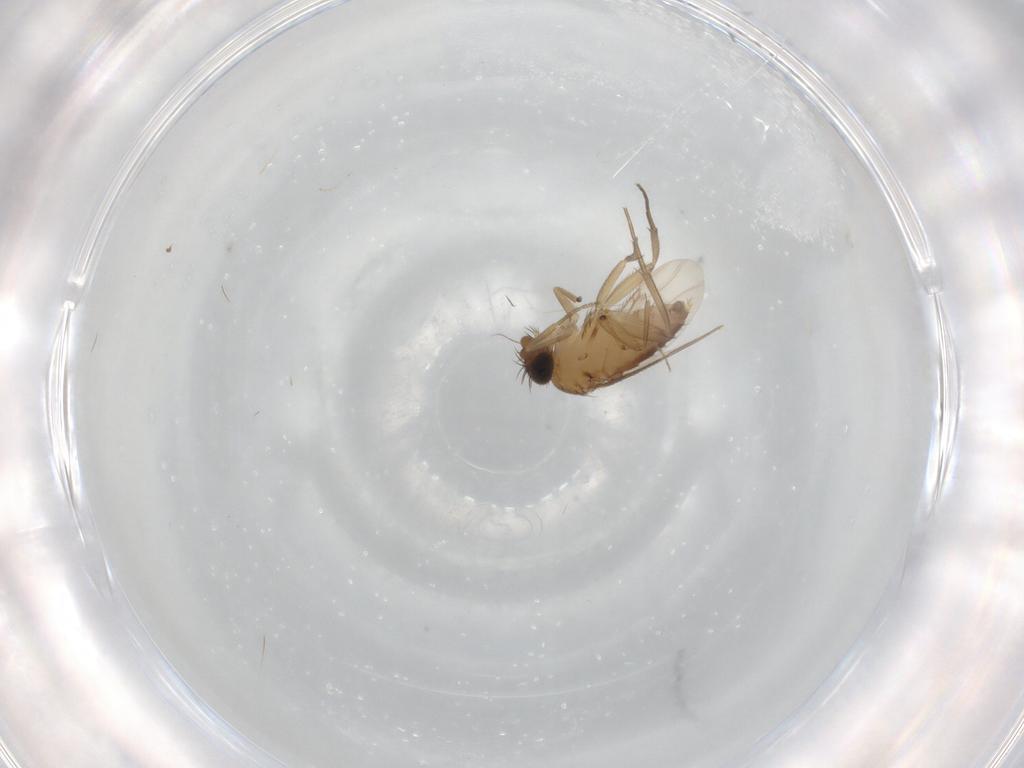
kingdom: Animalia
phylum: Arthropoda
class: Insecta
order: Diptera
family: Phoridae
